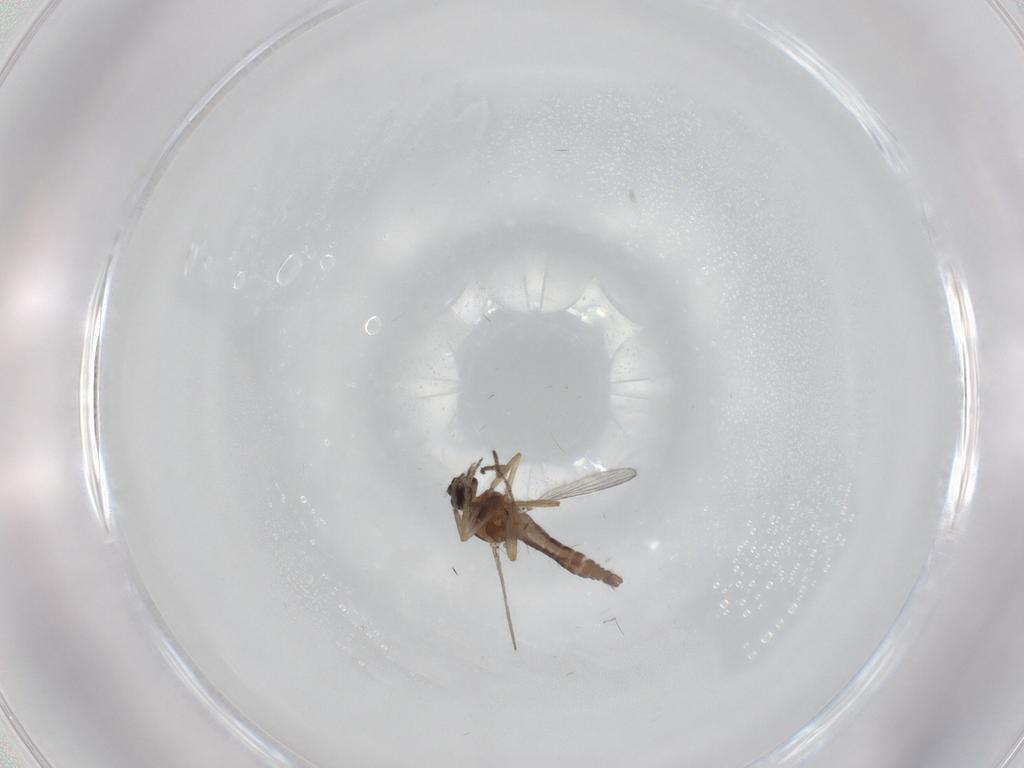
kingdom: Animalia
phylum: Arthropoda
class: Insecta
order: Diptera
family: Ceratopogonidae
